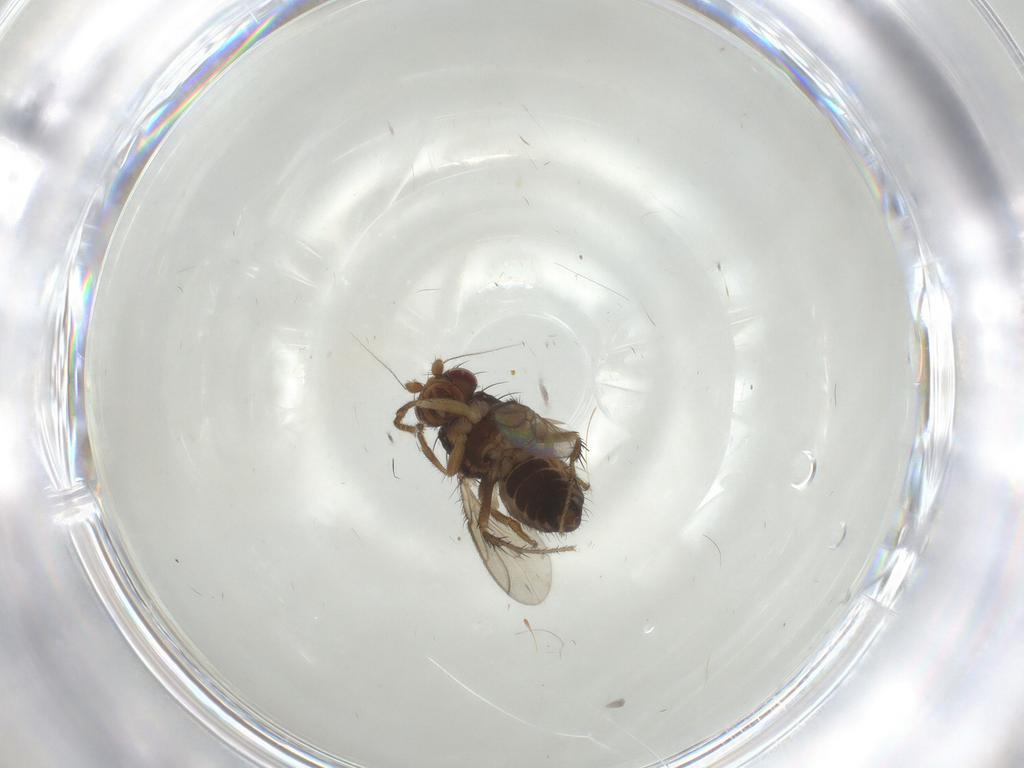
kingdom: Animalia
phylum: Arthropoda
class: Insecta
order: Diptera
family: Sphaeroceridae
